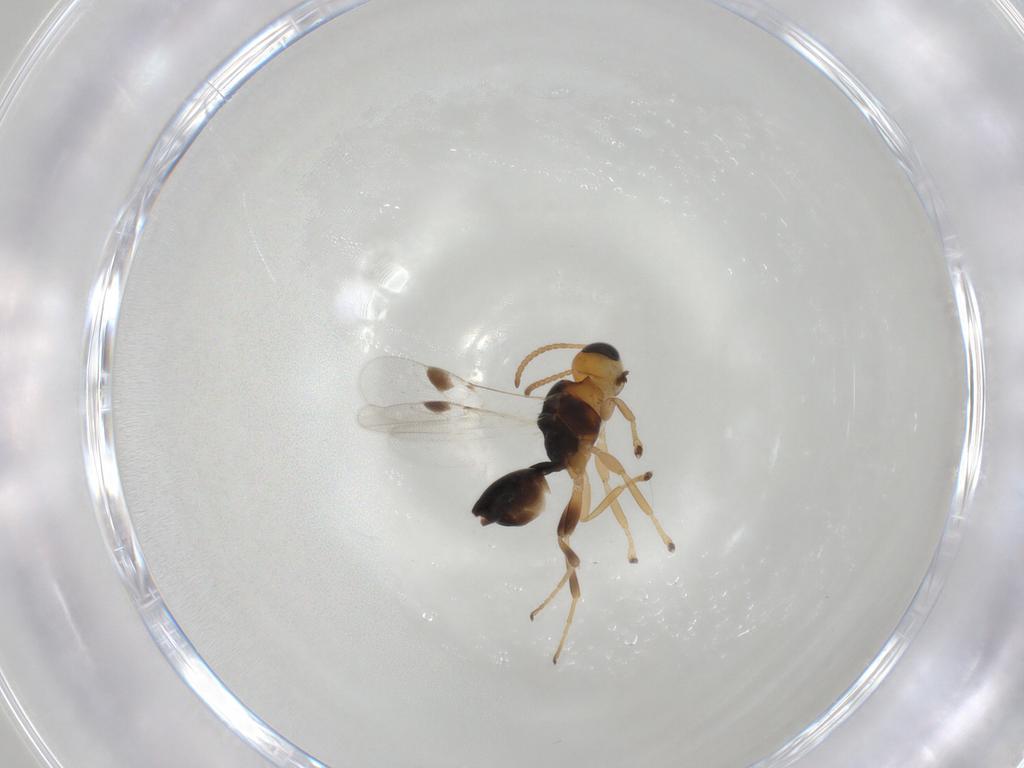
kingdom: Animalia
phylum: Arthropoda
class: Insecta
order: Hymenoptera
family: Braconidae
